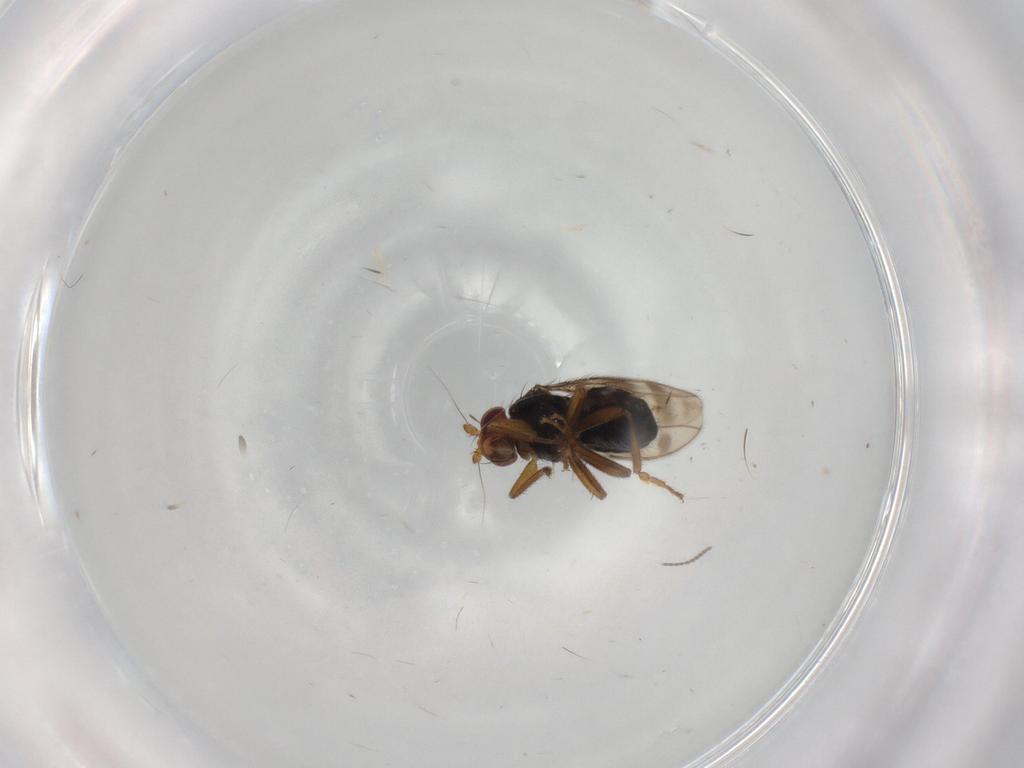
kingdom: Animalia
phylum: Arthropoda
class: Insecta
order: Diptera
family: Sphaeroceridae
